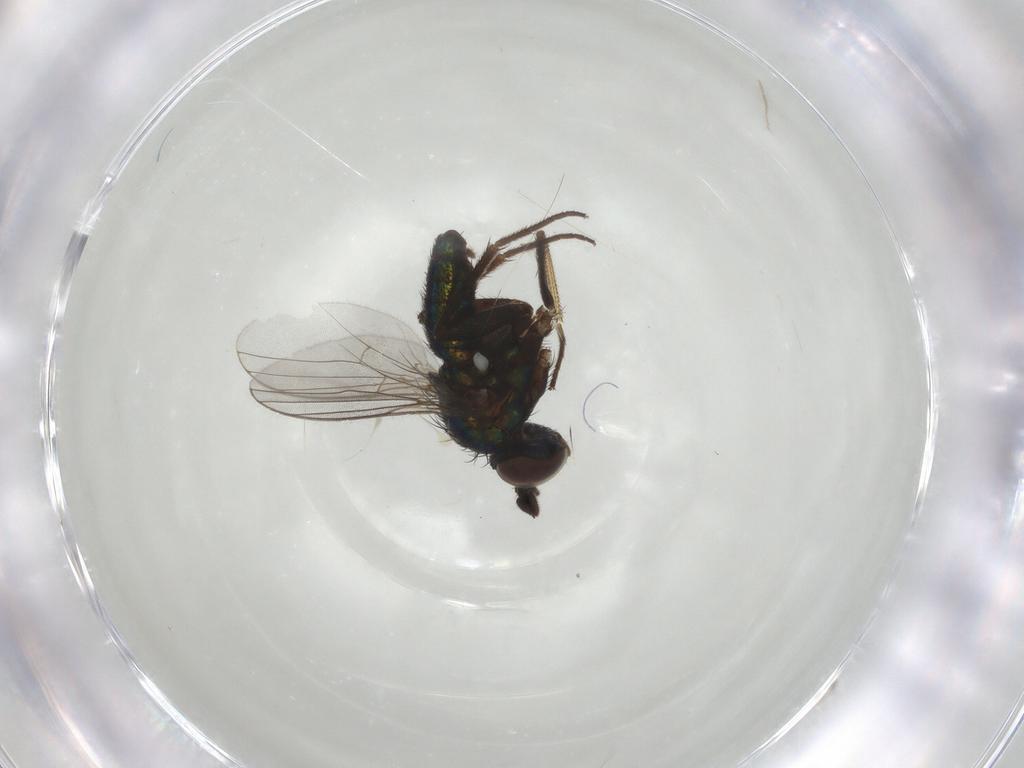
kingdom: Animalia
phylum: Arthropoda
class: Insecta
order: Diptera
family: Dolichopodidae
